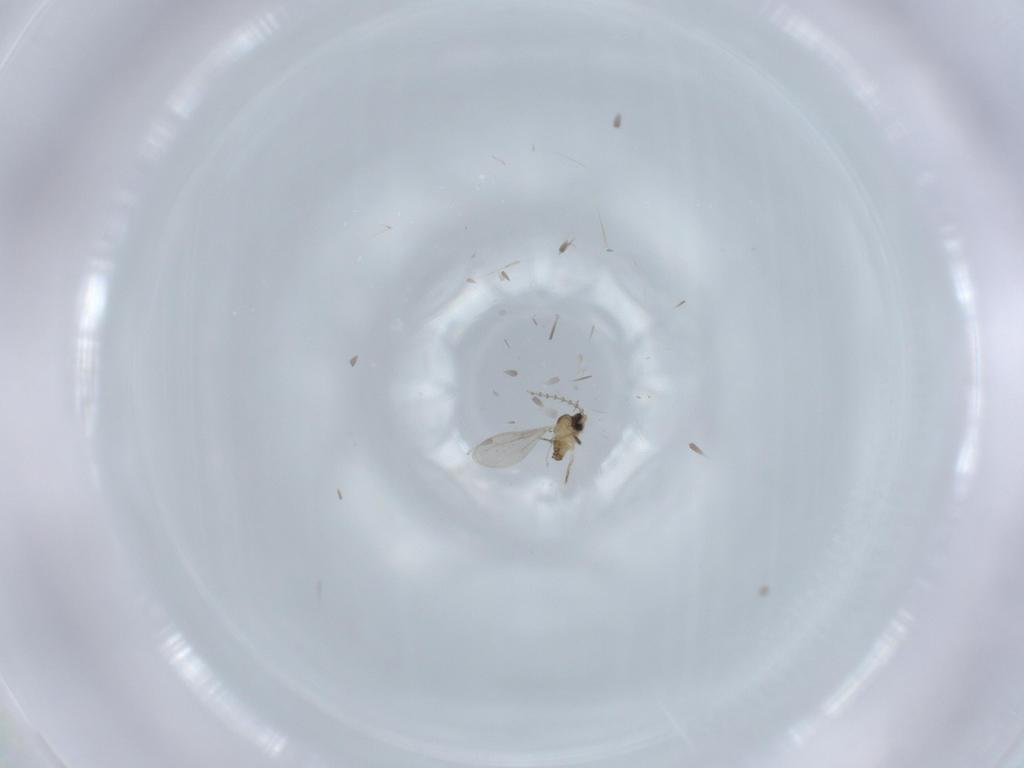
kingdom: Animalia
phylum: Arthropoda
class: Insecta
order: Diptera
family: Cecidomyiidae
